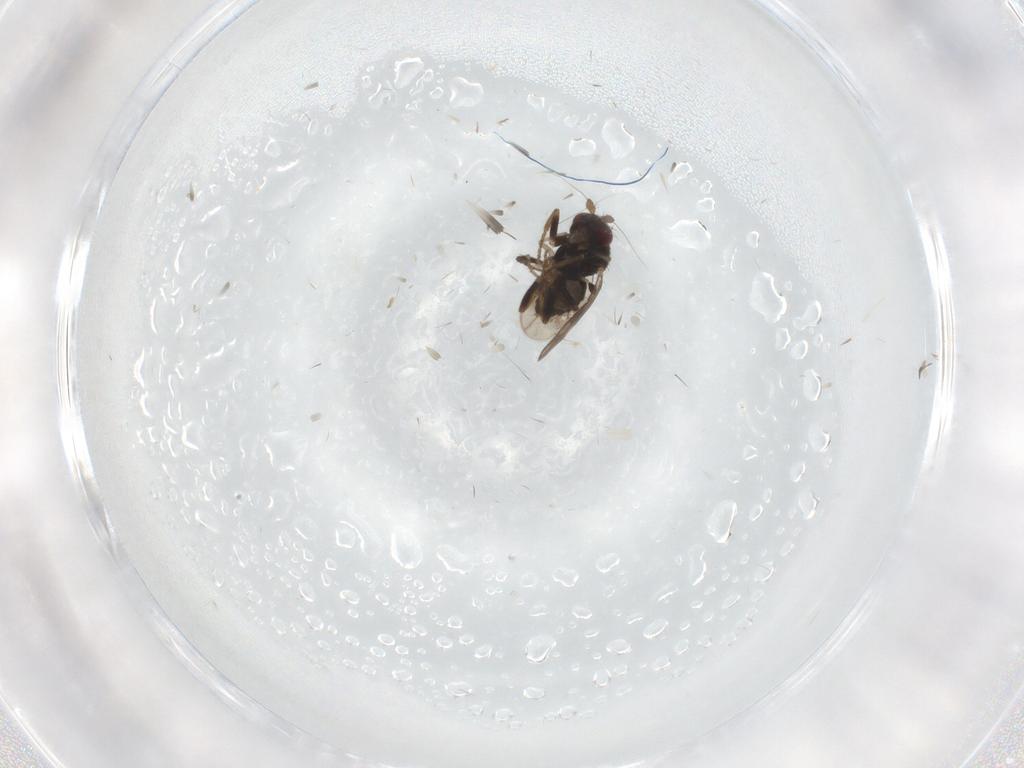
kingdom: Animalia
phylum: Arthropoda
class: Insecta
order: Diptera
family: Sphaeroceridae
